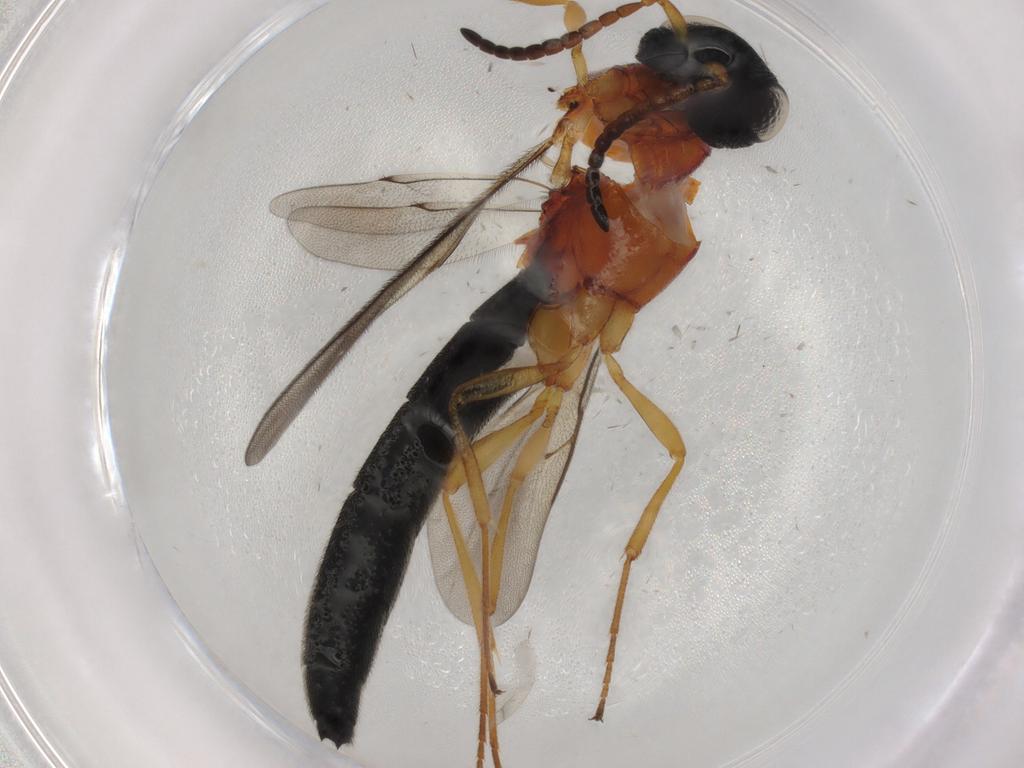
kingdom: Animalia
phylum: Arthropoda
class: Insecta
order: Hymenoptera
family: Scelionidae
